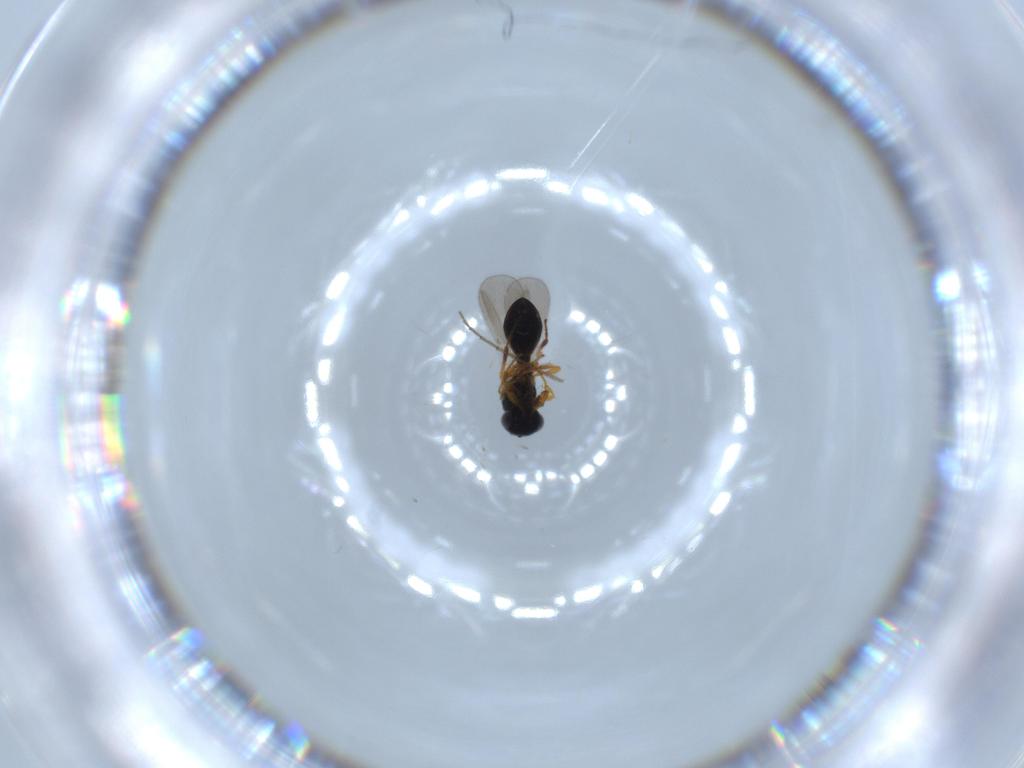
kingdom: Animalia
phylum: Arthropoda
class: Insecta
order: Hymenoptera
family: Platygastridae
